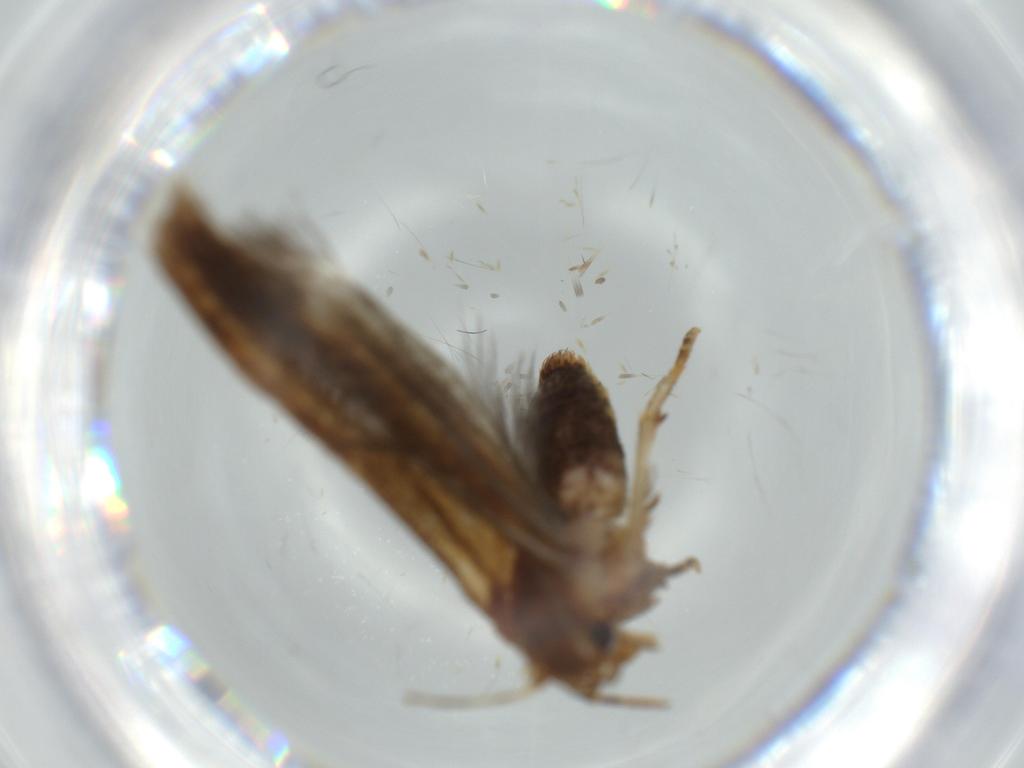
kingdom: Animalia
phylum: Arthropoda
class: Insecta
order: Lepidoptera
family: Coleophoridae
